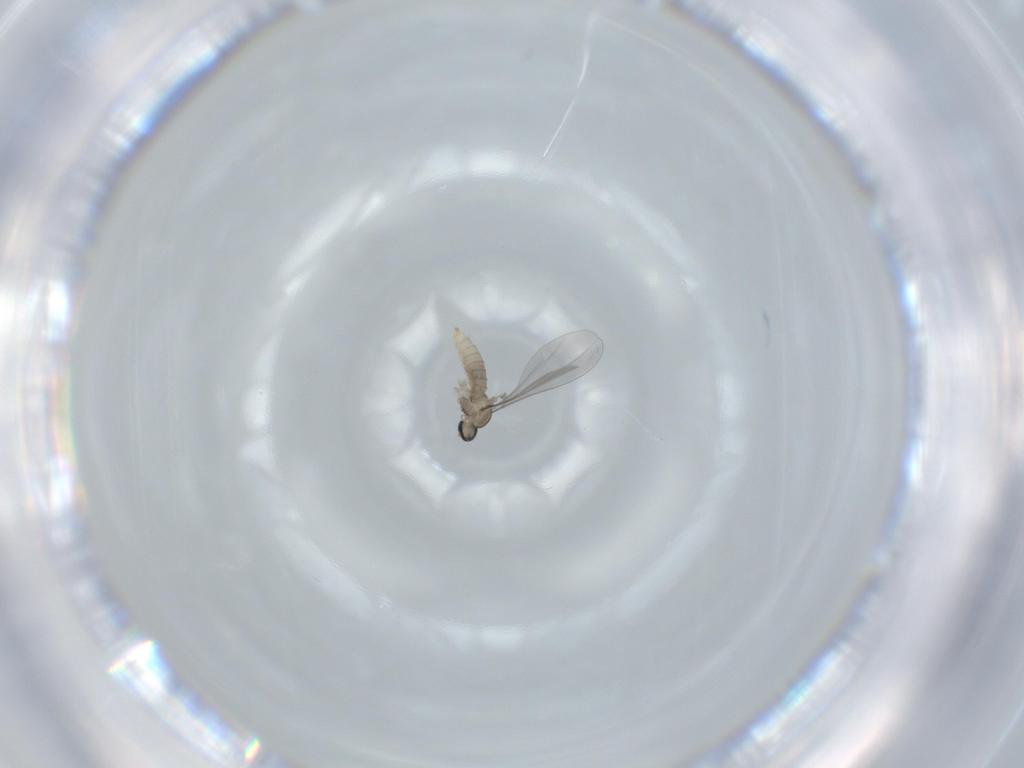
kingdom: Animalia
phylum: Arthropoda
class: Insecta
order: Diptera
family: Cecidomyiidae
